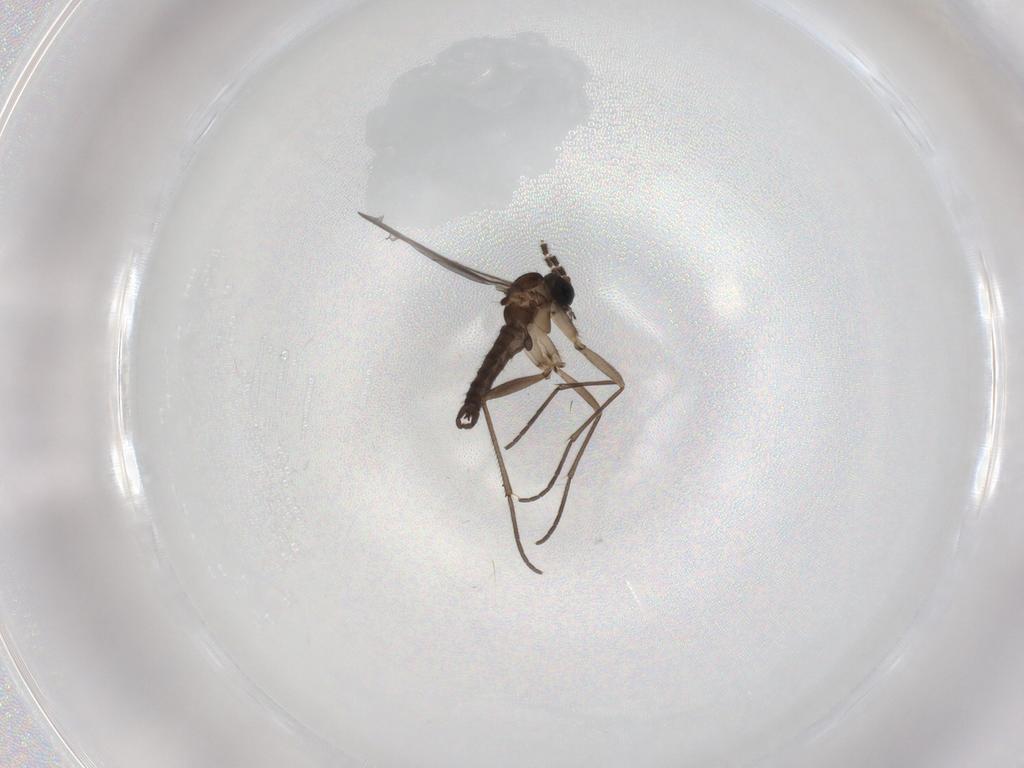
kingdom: Animalia
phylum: Arthropoda
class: Insecta
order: Diptera
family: Sciaridae
